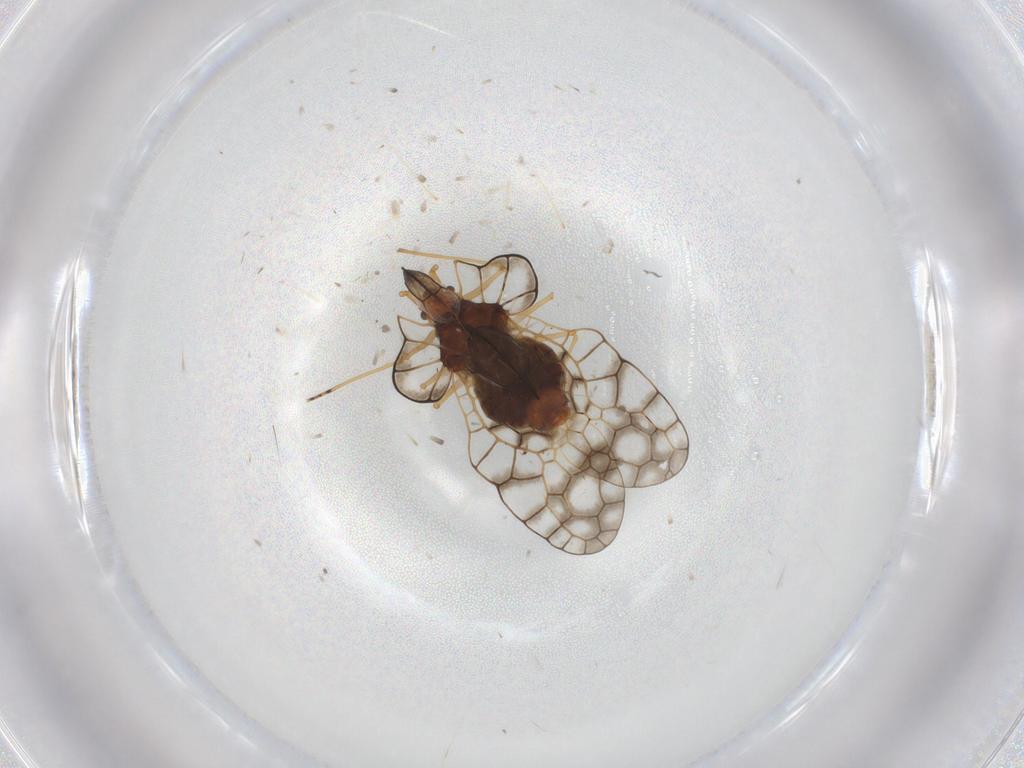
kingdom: Animalia
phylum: Arthropoda
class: Insecta
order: Hemiptera
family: Tingidae
